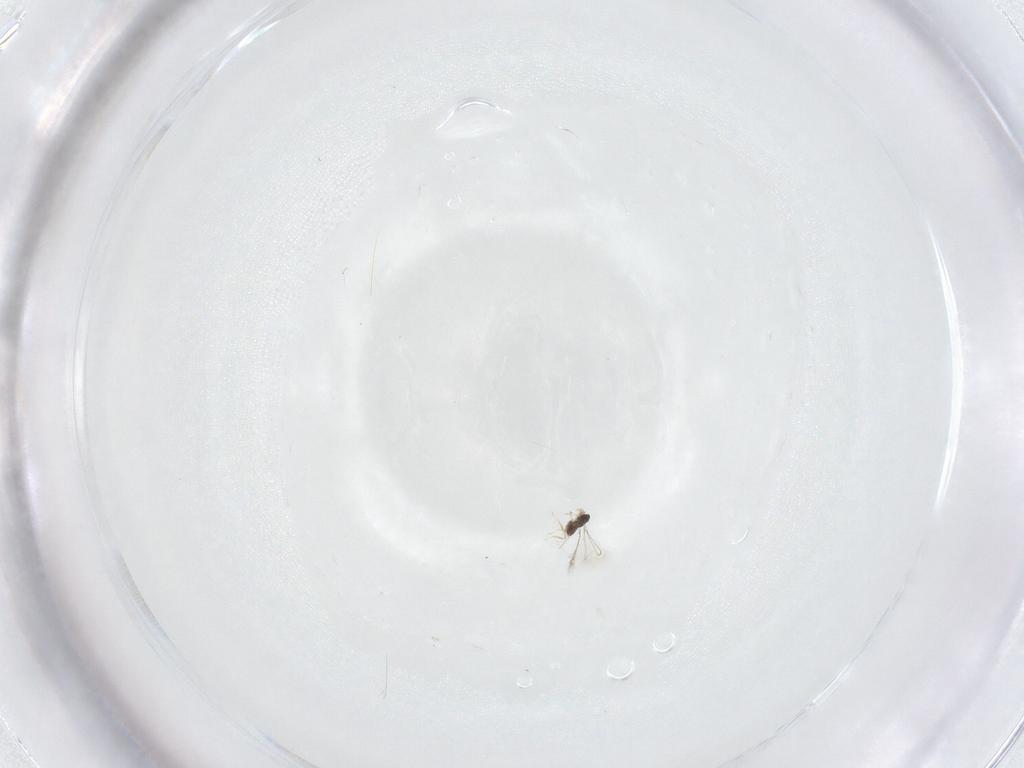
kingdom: Animalia
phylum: Arthropoda
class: Insecta
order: Hymenoptera
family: Mymaridae
